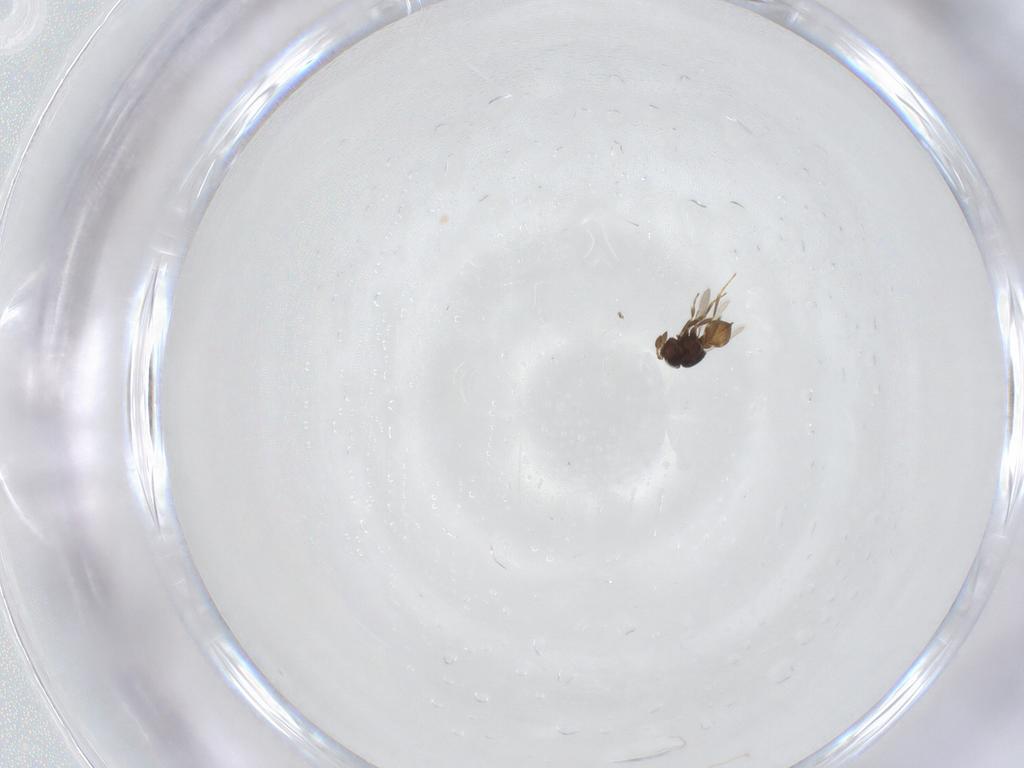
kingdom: Animalia
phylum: Arthropoda
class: Insecta
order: Hymenoptera
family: Scelionidae
